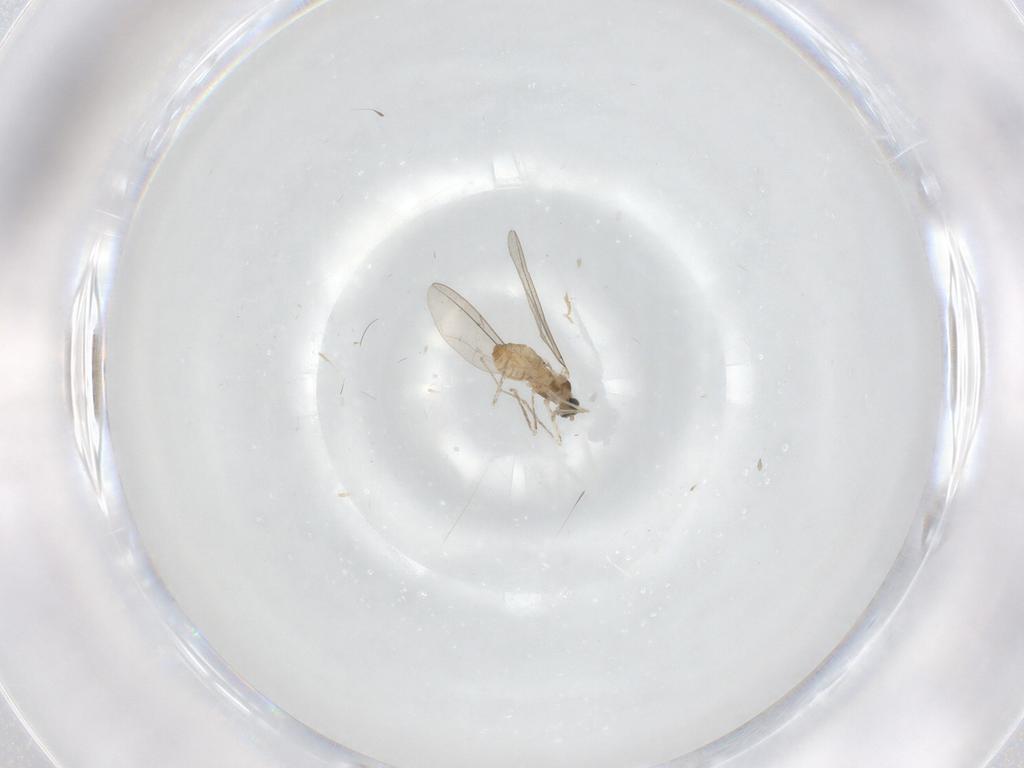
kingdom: Animalia
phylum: Arthropoda
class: Insecta
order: Diptera
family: Cecidomyiidae
